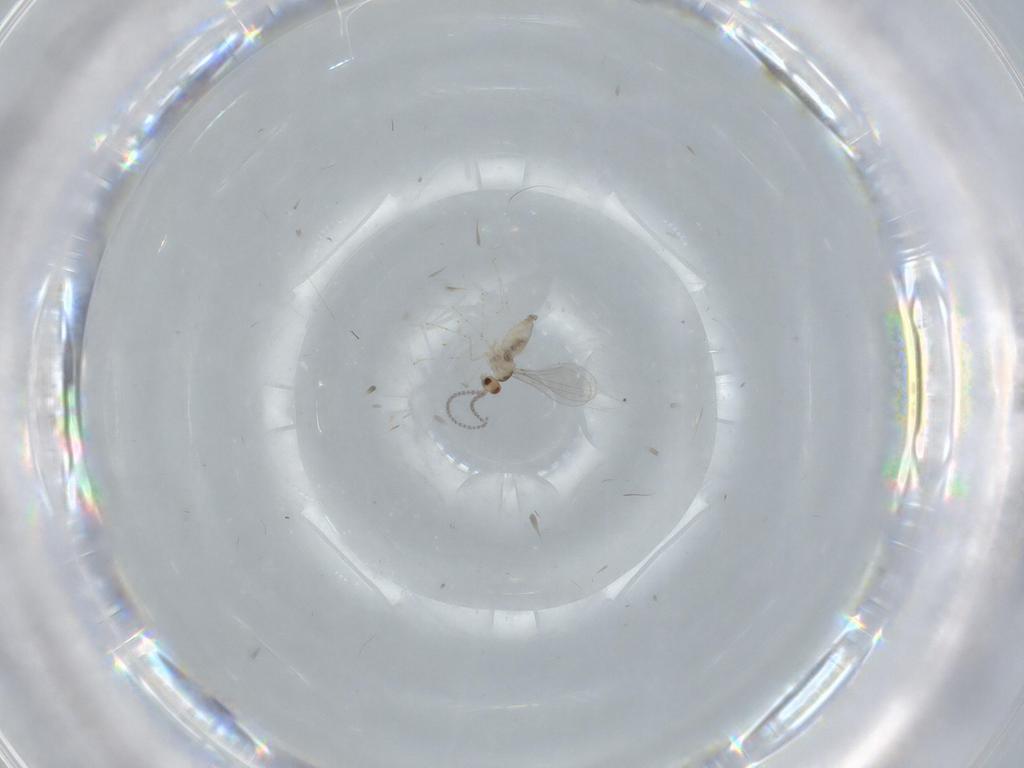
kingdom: Animalia
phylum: Arthropoda
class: Insecta
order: Diptera
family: Cecidomyiidae
